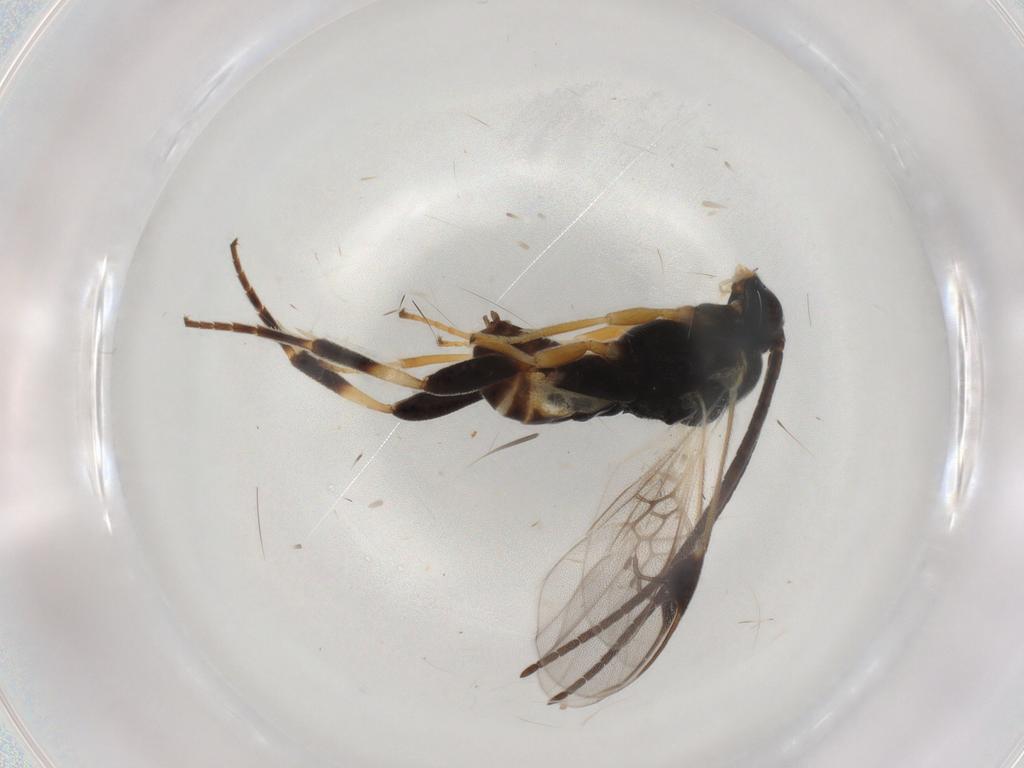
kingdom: Animalia
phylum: Arthropoda
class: Insecta
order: Hymenoptera
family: Braconidae
